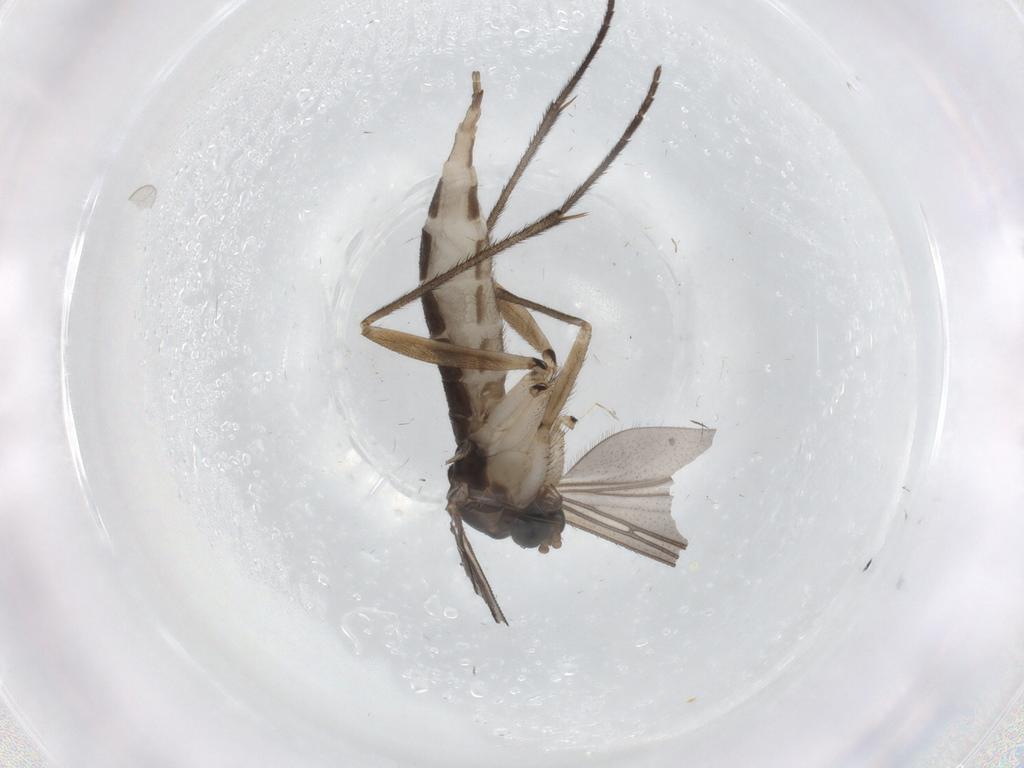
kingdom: Animalia
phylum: Arthropoda
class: Insecta
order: Diptera
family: Sciaridae
